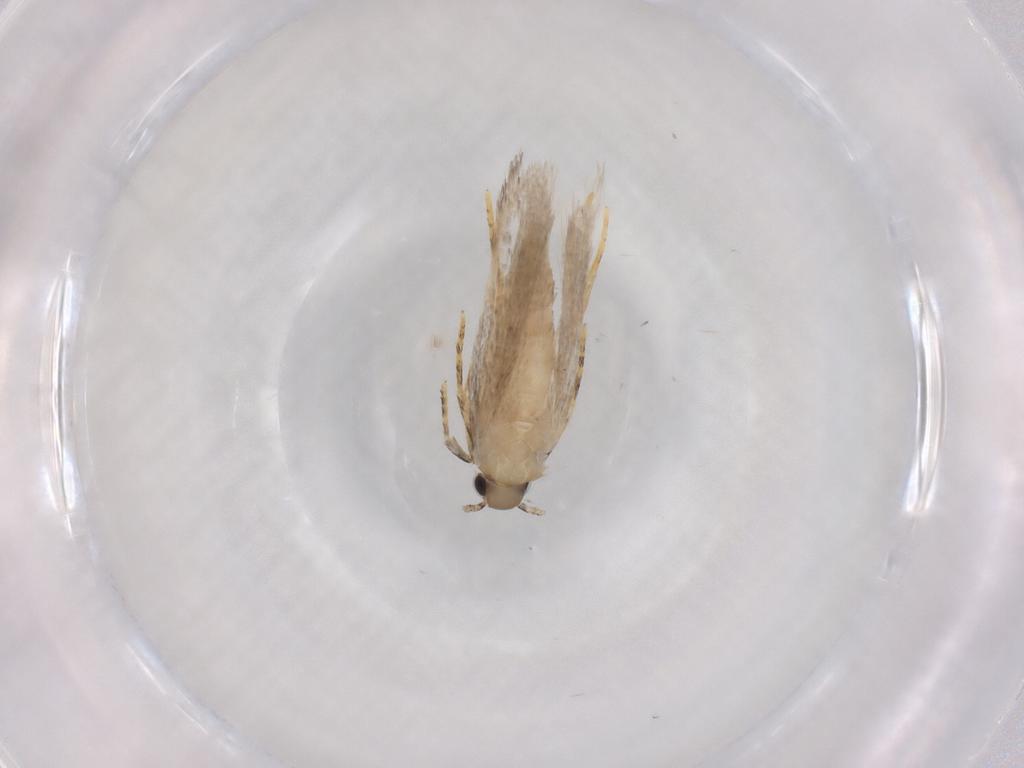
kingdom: Animalia
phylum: Arthropoda
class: Insecta
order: Lepidoptera
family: Autostichidae
